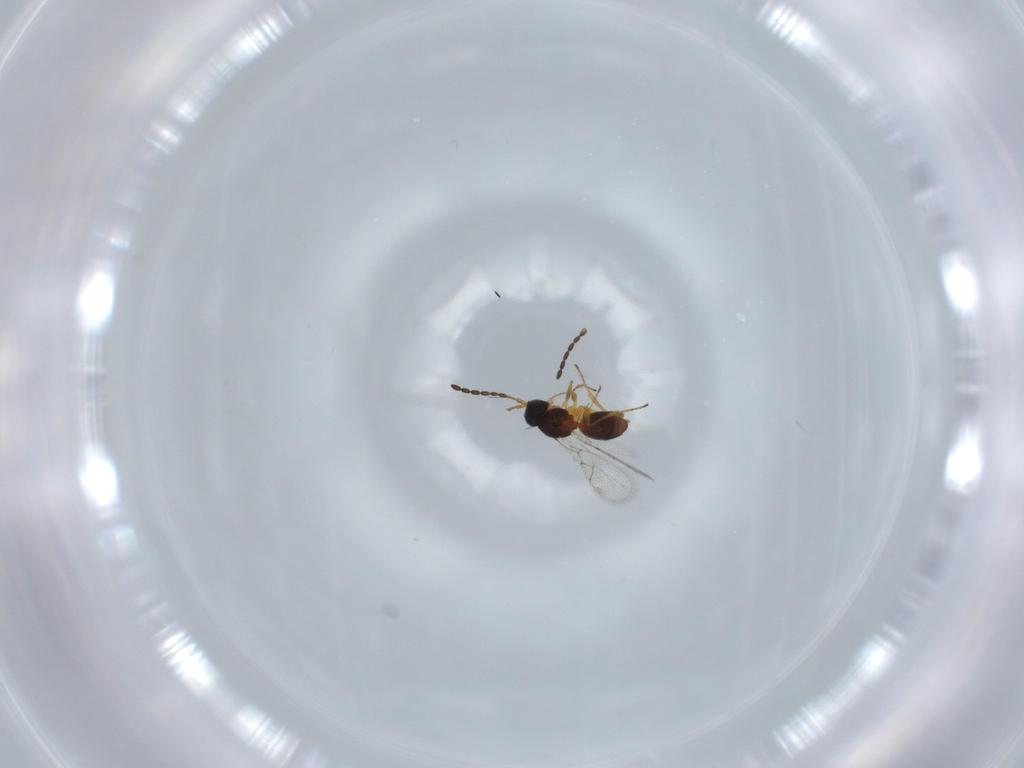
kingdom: Animalia
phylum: Arthropoda
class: Insecta
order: Hymenoptera
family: Figitidae
